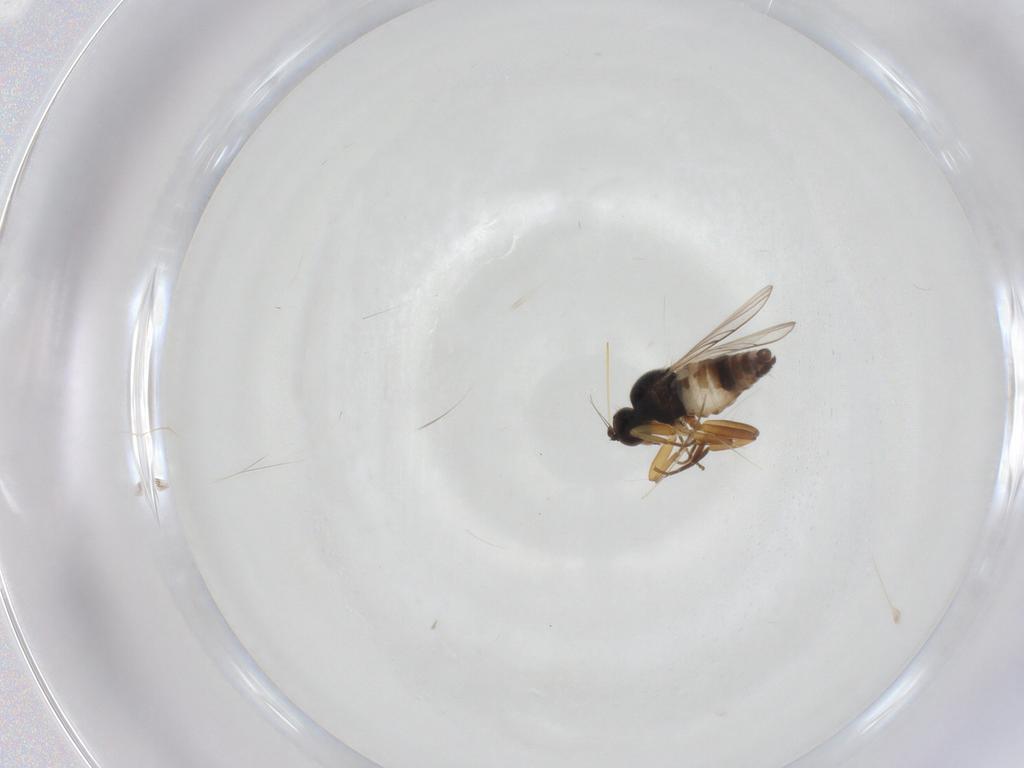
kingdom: Animalia
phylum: Arthropoda
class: Insecta
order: Diptera
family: Hybotidae
